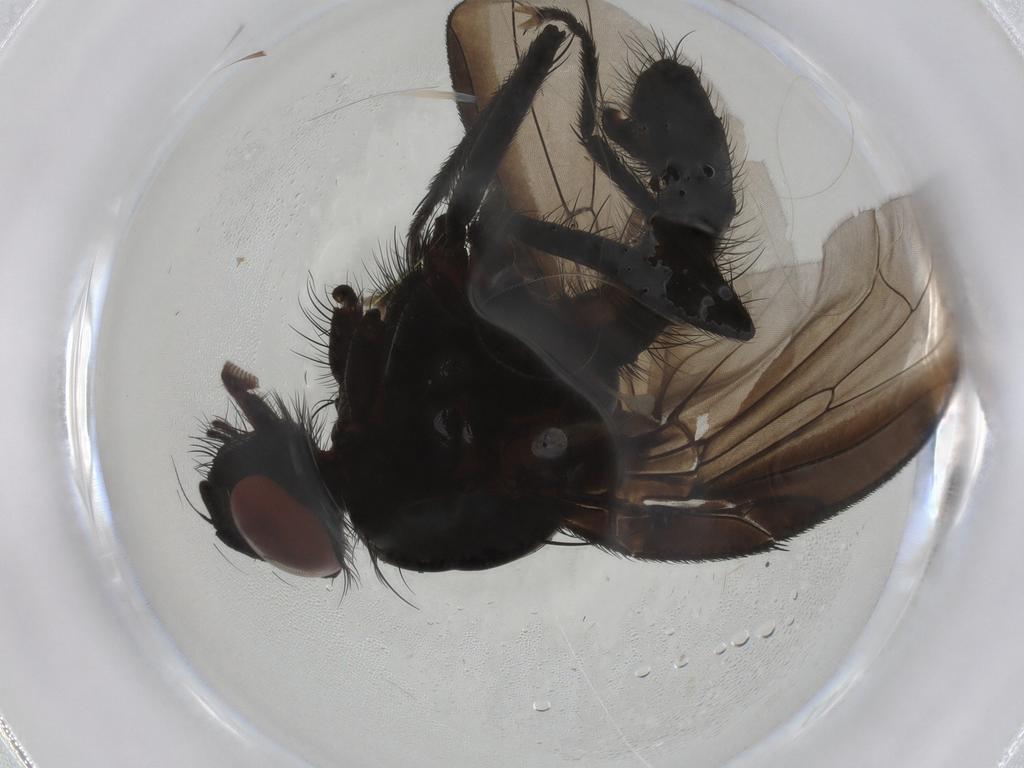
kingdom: Animalia
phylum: Arthropoda
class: Insecta
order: Diptera
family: Anthomyiidae
